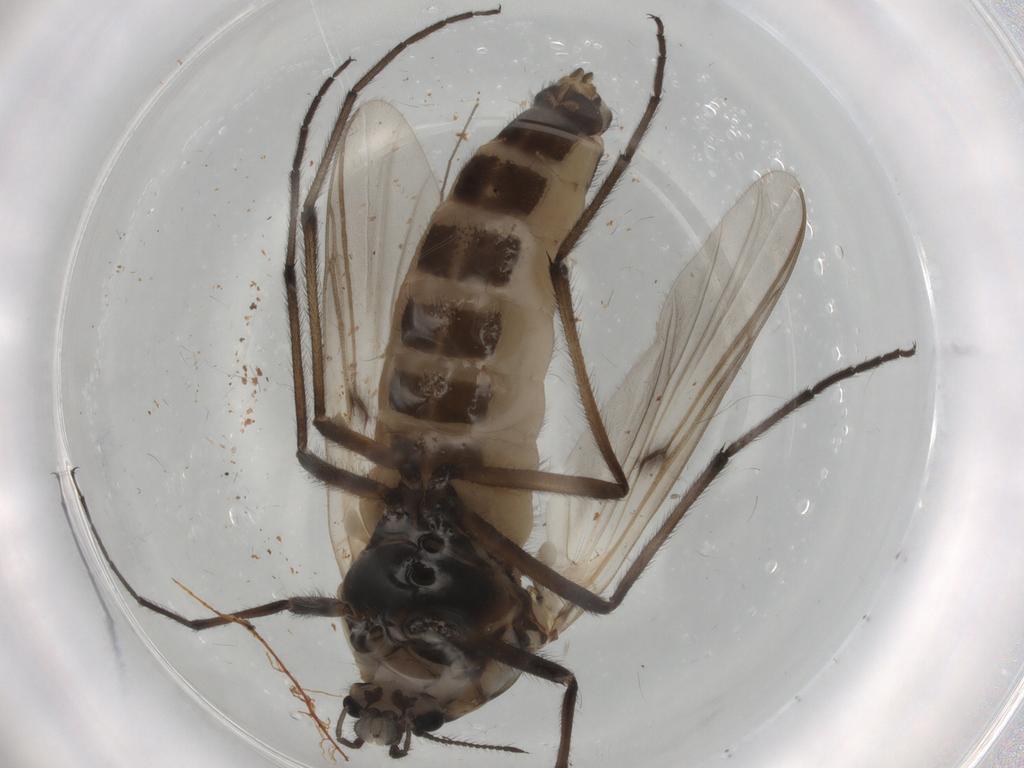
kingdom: Animalia
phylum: Arthropoda
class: Insecta
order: Diptera
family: Chironomidae
